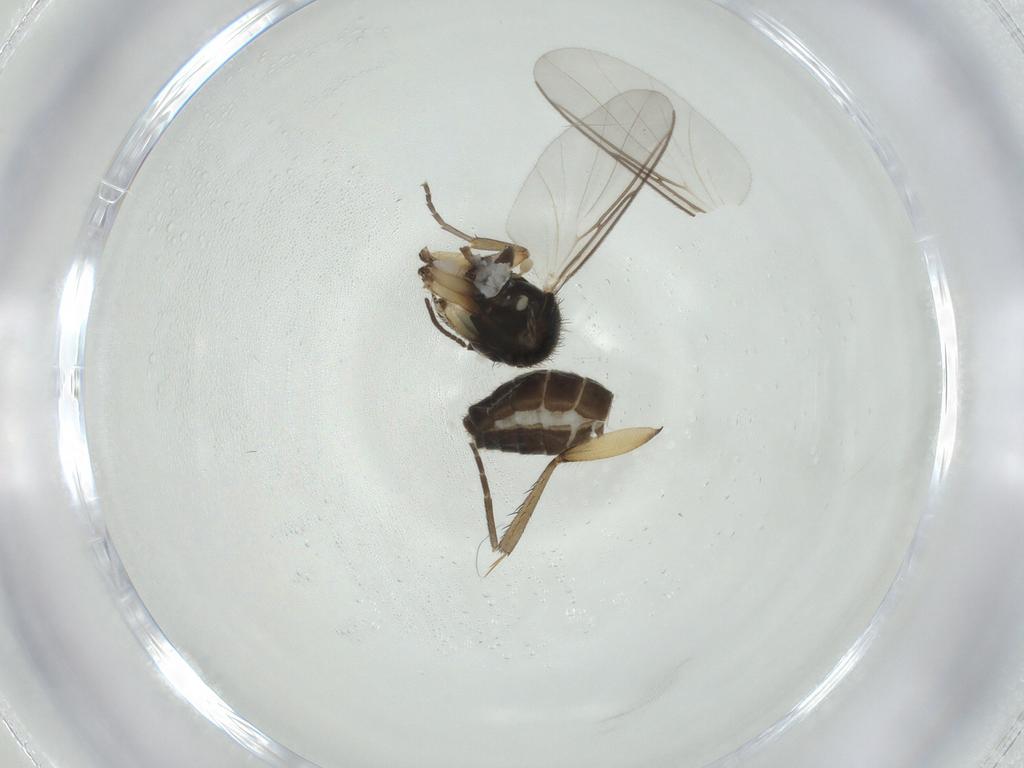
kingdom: Animalia
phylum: Arthropoda
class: Insecta
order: Diptera
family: Mycetophilidae
